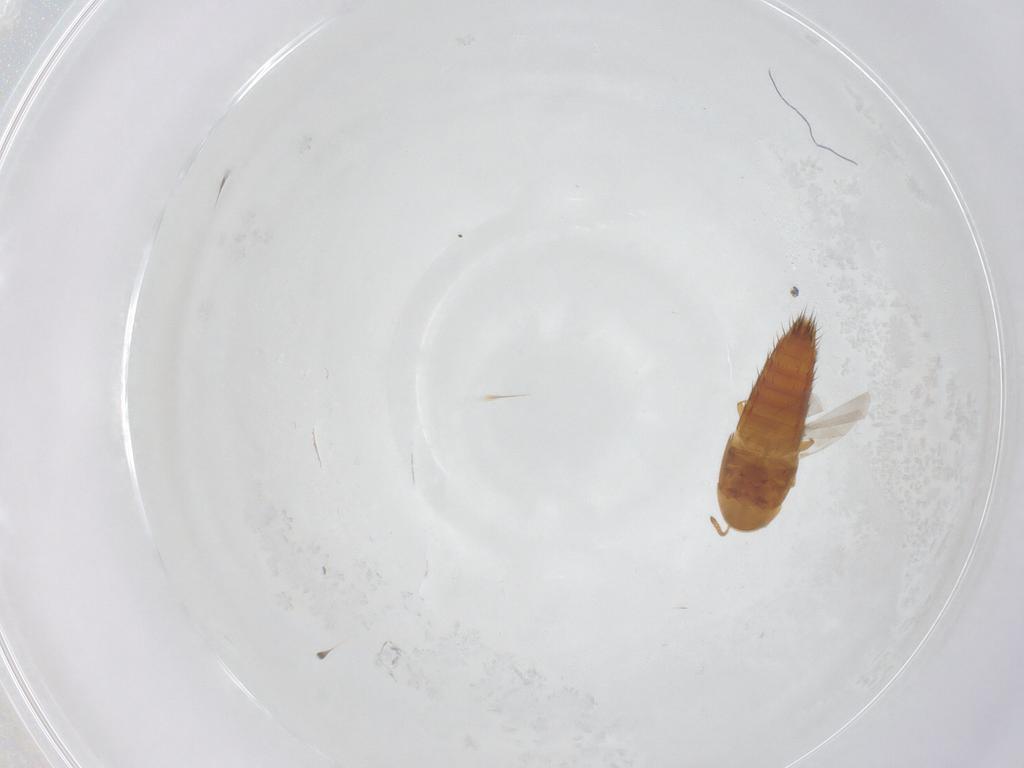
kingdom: Animalia
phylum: Arthropoda
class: Insecta
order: Coleoptera
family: Staphylinidae
